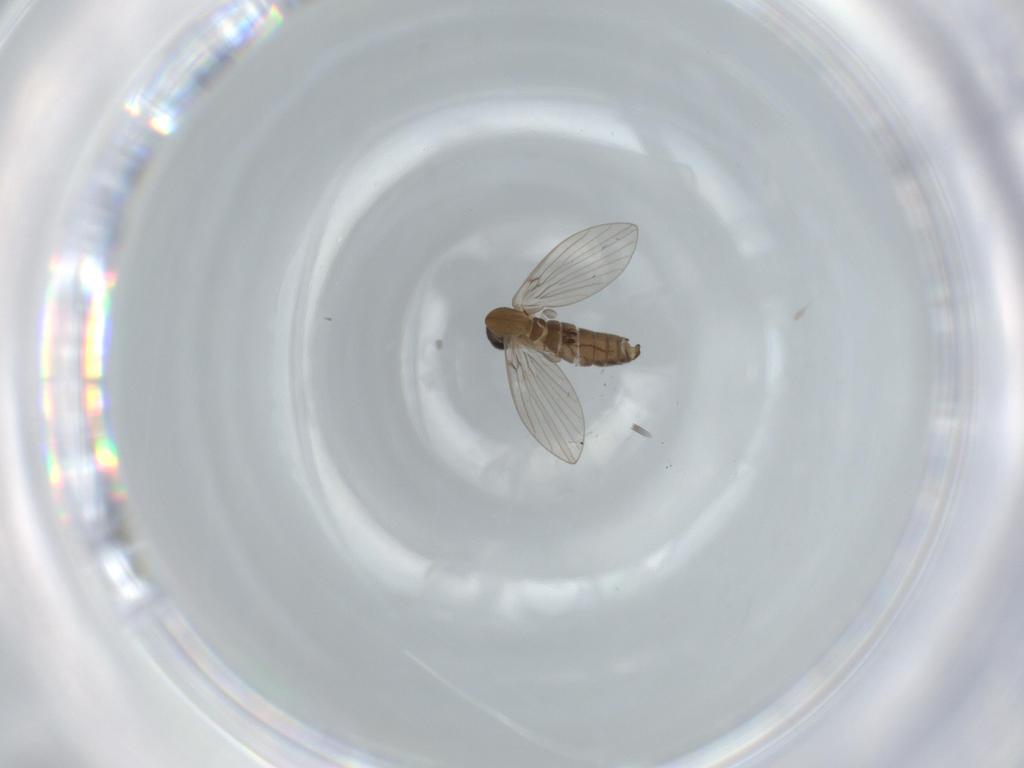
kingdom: Animalia
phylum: Arthropoda
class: Insecta
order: Diptera
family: Psychodidae
